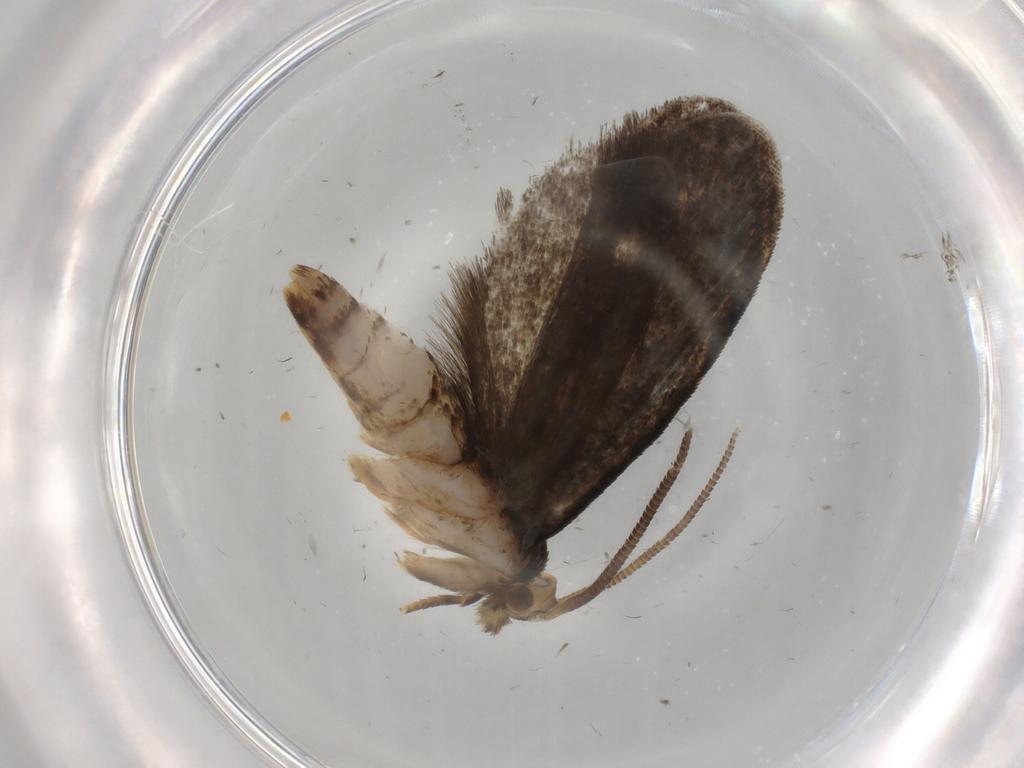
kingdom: Animalia
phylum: Arthropoda
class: Insecta
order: Lepidoptera
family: Dryadaulidae
